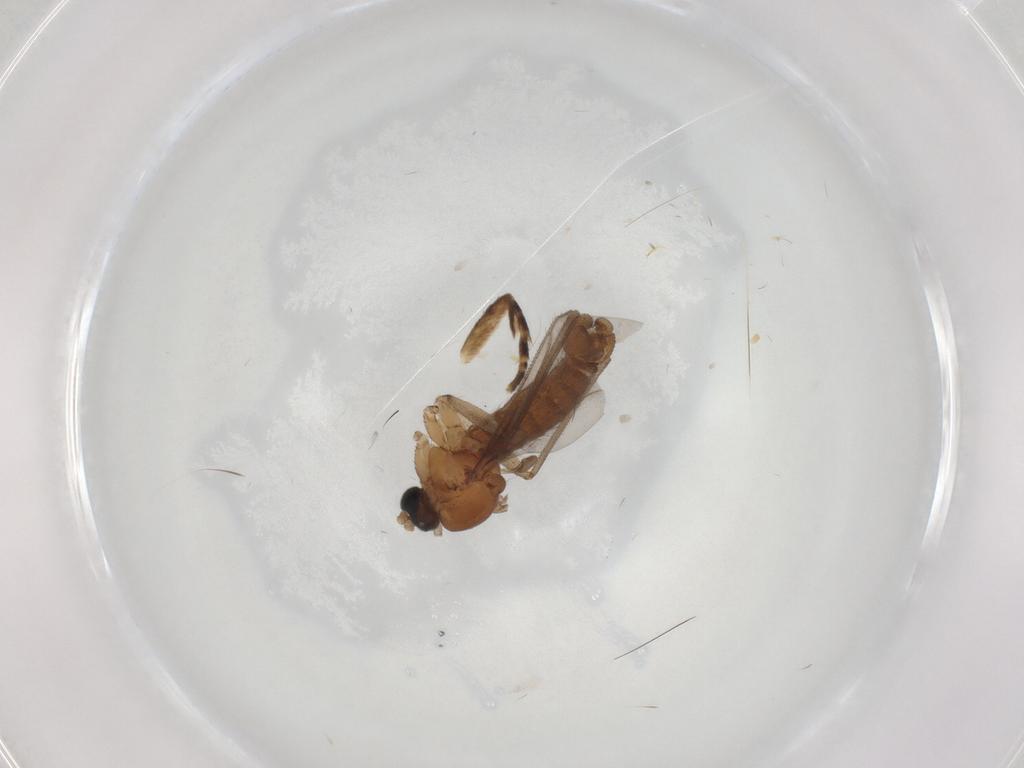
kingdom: Animalia
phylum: Arthropoda
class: Insecta
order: Diptera
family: Sciaridae
